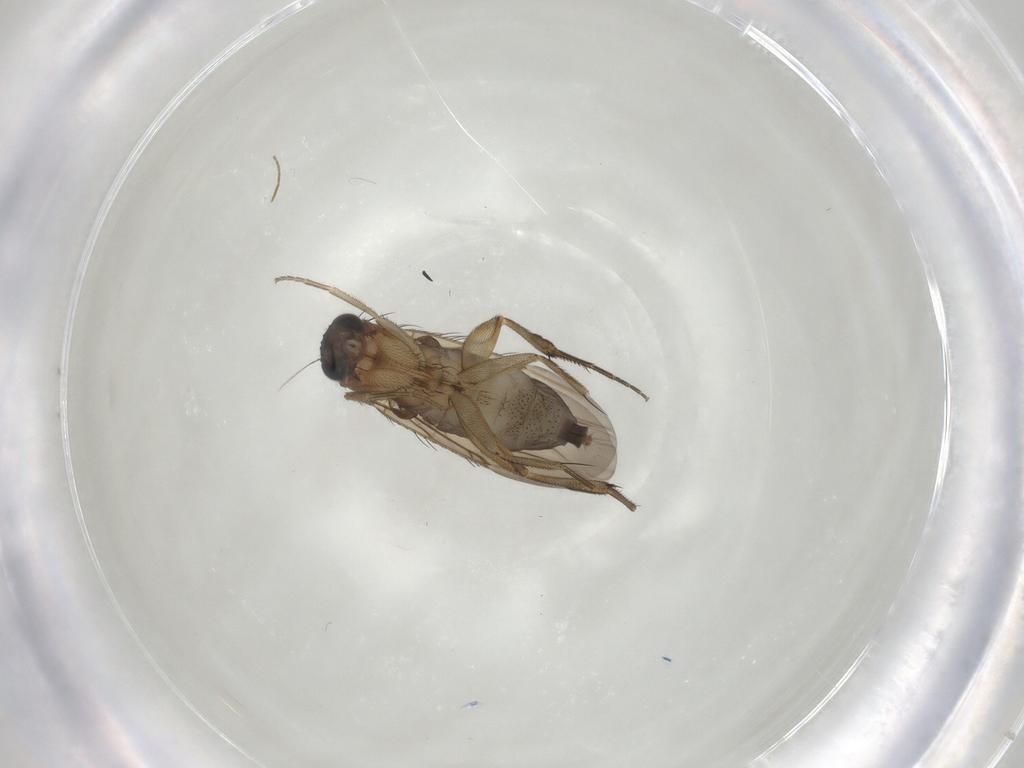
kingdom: Animalia
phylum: Arthropoda
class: Insecta
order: Diptera
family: Phoridae
